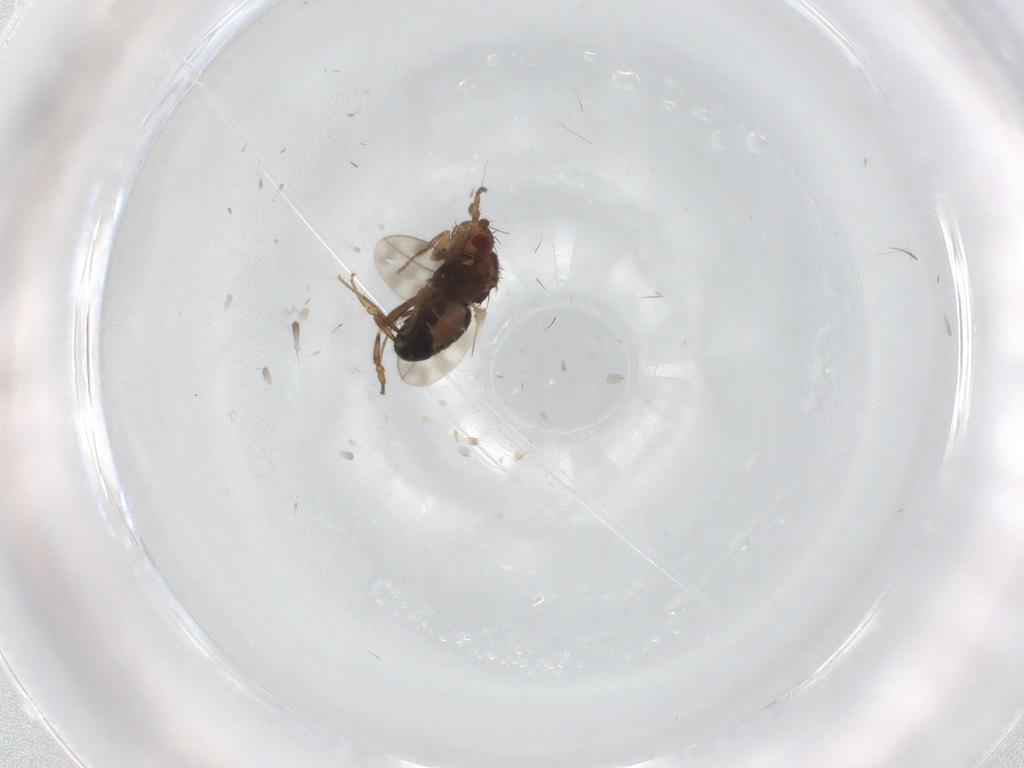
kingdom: Animalia
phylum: Arthropoda
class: Insecta
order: Diptera
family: Sphaeroceridae
